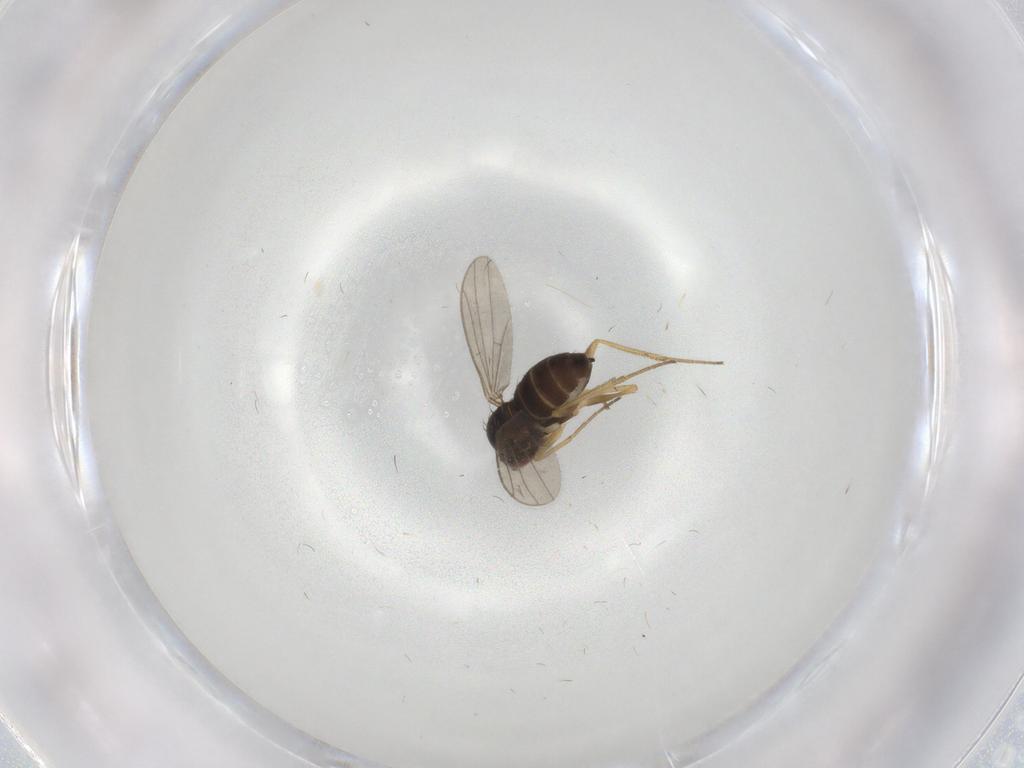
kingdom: Animalia
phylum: Arthropoda
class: Insecta
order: Diptera
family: Dolichopodidae
